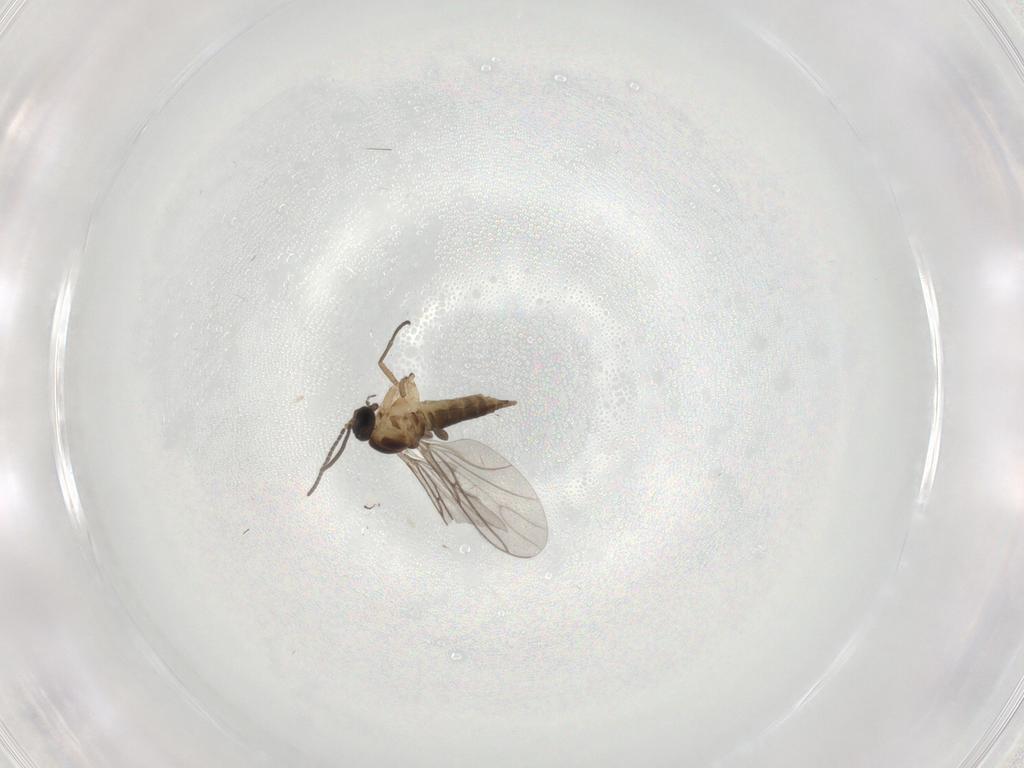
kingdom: Animalia
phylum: Arthropoda
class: Insecta
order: Diptera
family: Sciaridae
